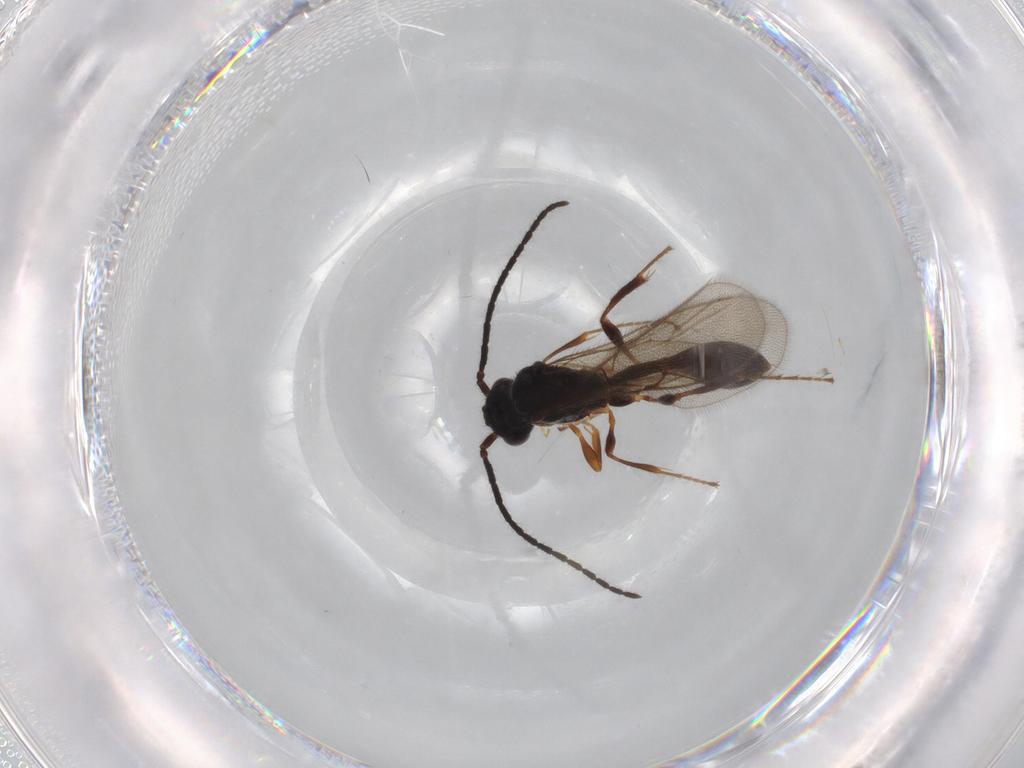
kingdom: Animalia
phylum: Arthropoda
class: Insecta
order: Hymenoptera
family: Diapriidae
